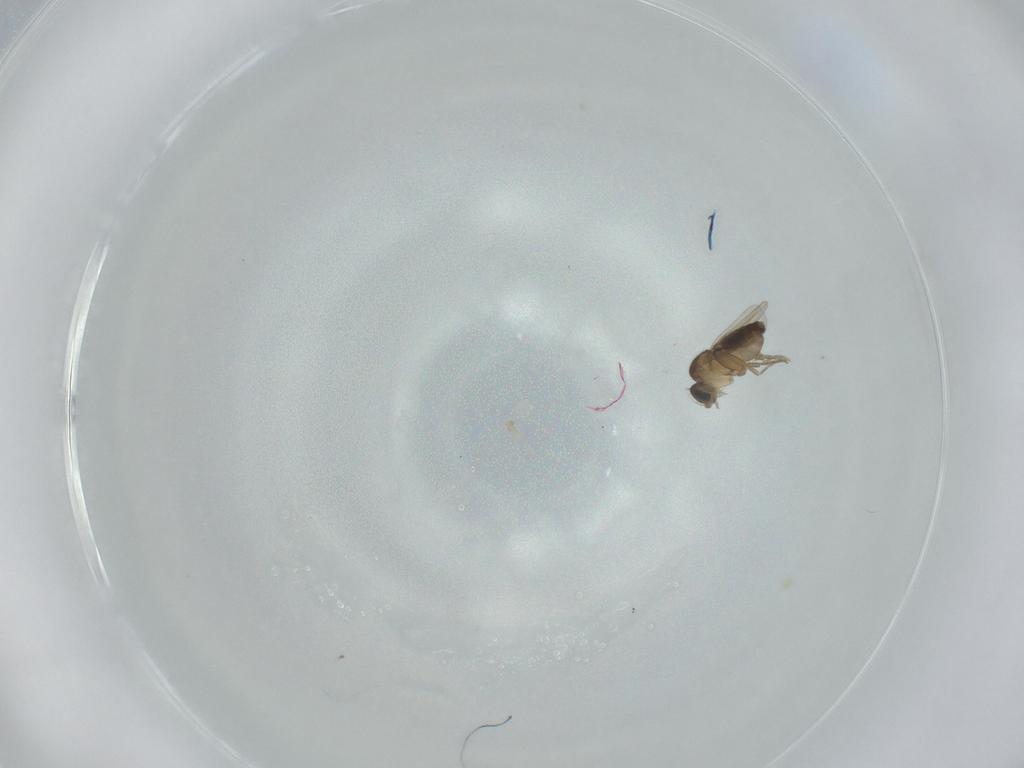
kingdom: Animalia
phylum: Arthropoda
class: Insecta
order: Diptera
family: Phoridae
